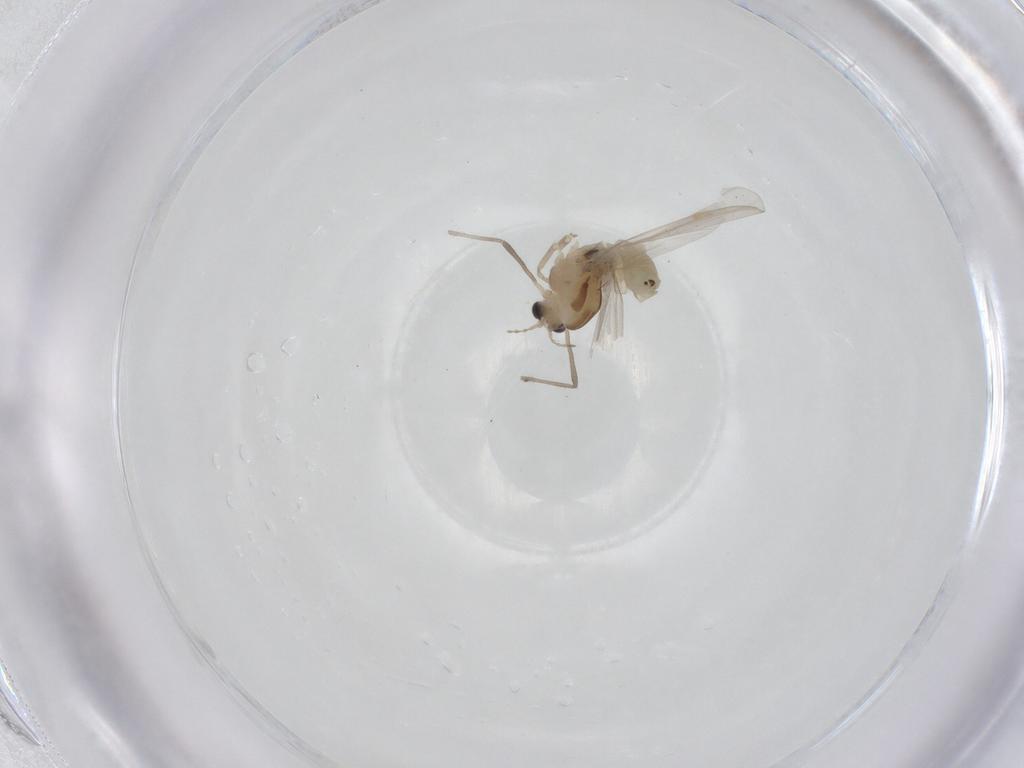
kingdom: Animalia
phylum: Arthropoda
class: Insecta
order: Diptera
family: Chironomidae
